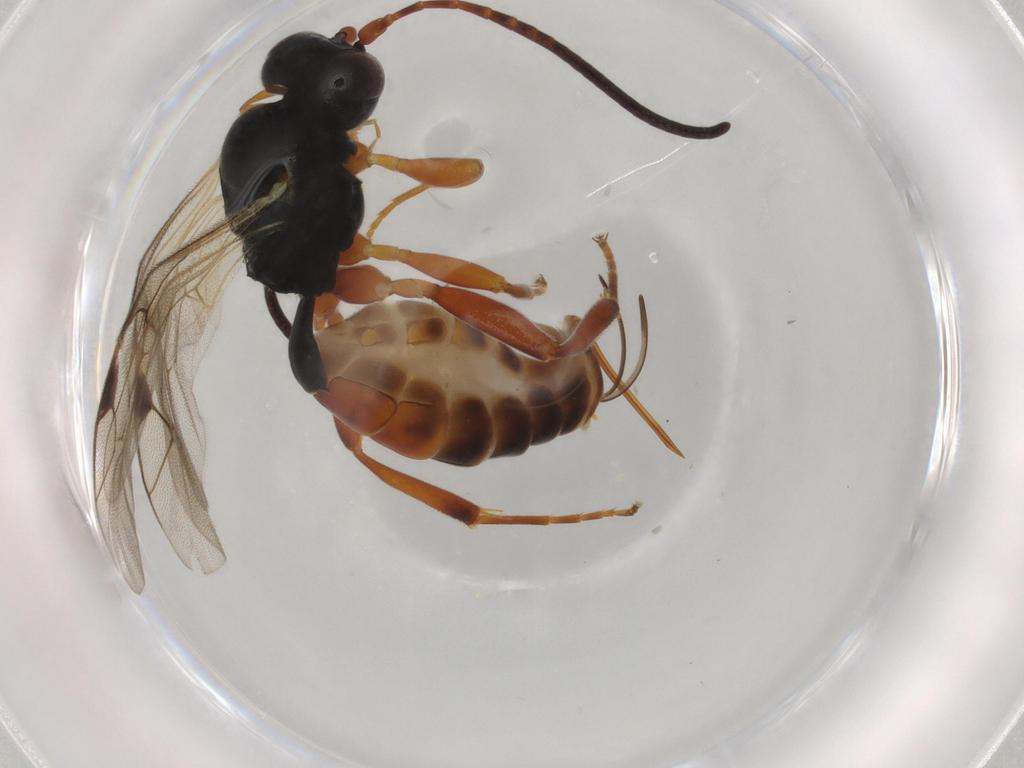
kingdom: Animalia
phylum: Arthropoda
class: Insecta
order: Hymenoptera
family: Ichneumonidae
